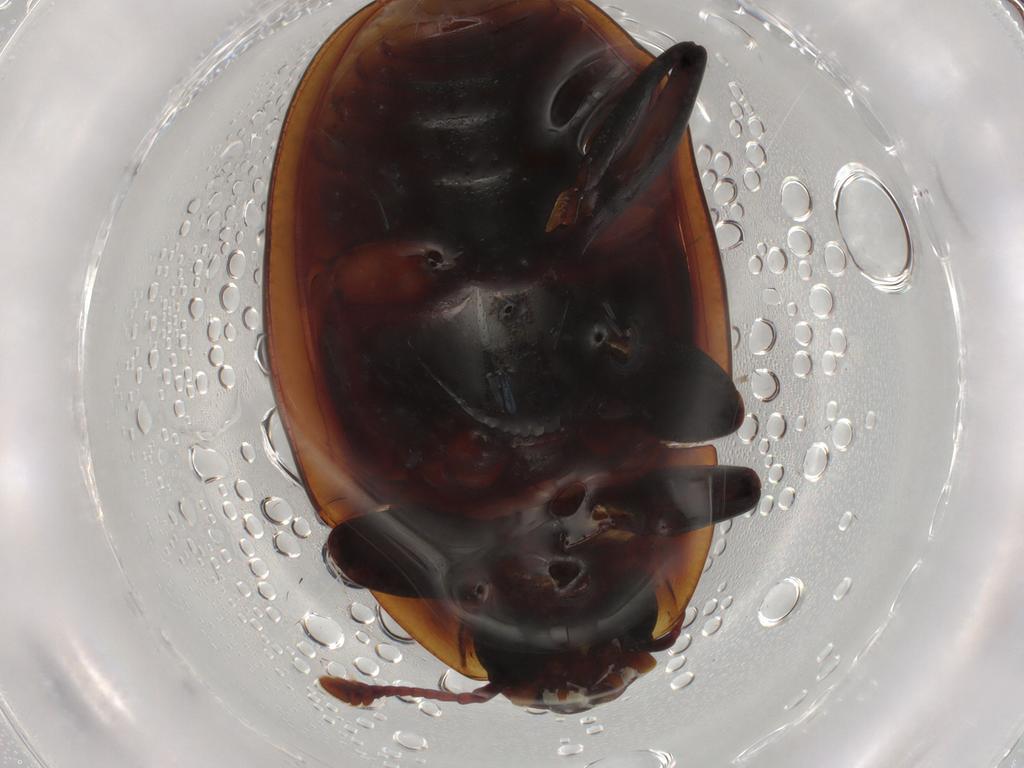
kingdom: Animalia
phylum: Arthropoda
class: Insecta
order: Coleoptera
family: Zopheridae
